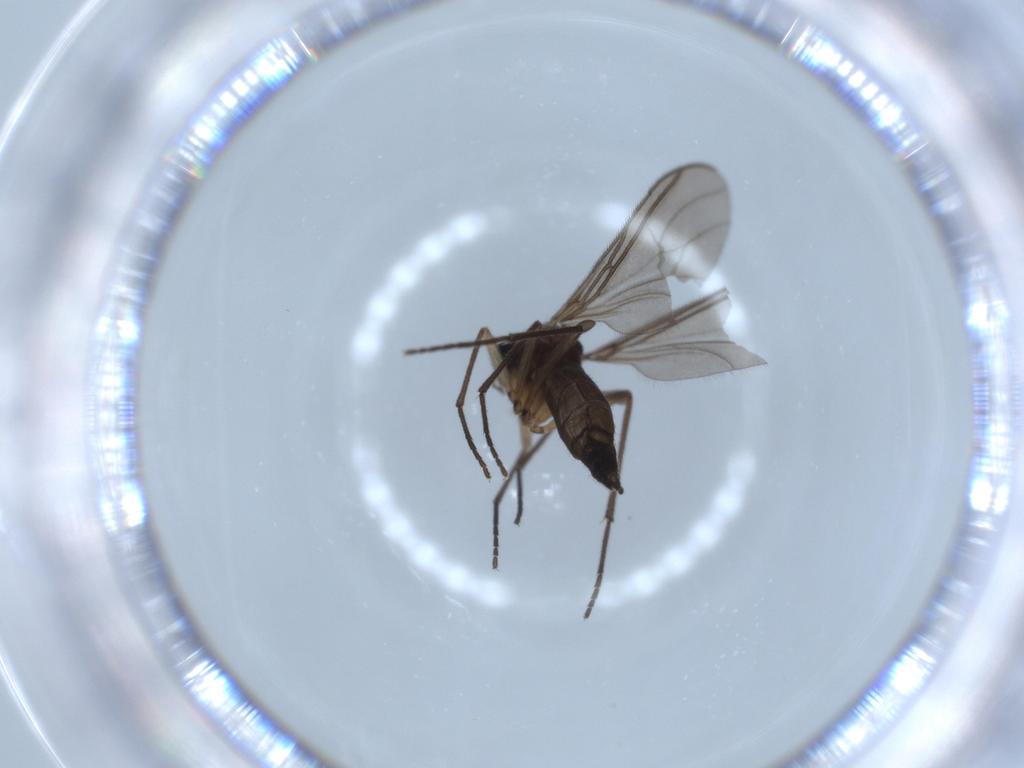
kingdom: Animalia
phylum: Arthropoda
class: Insecta
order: Diptera
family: Sciaridae
